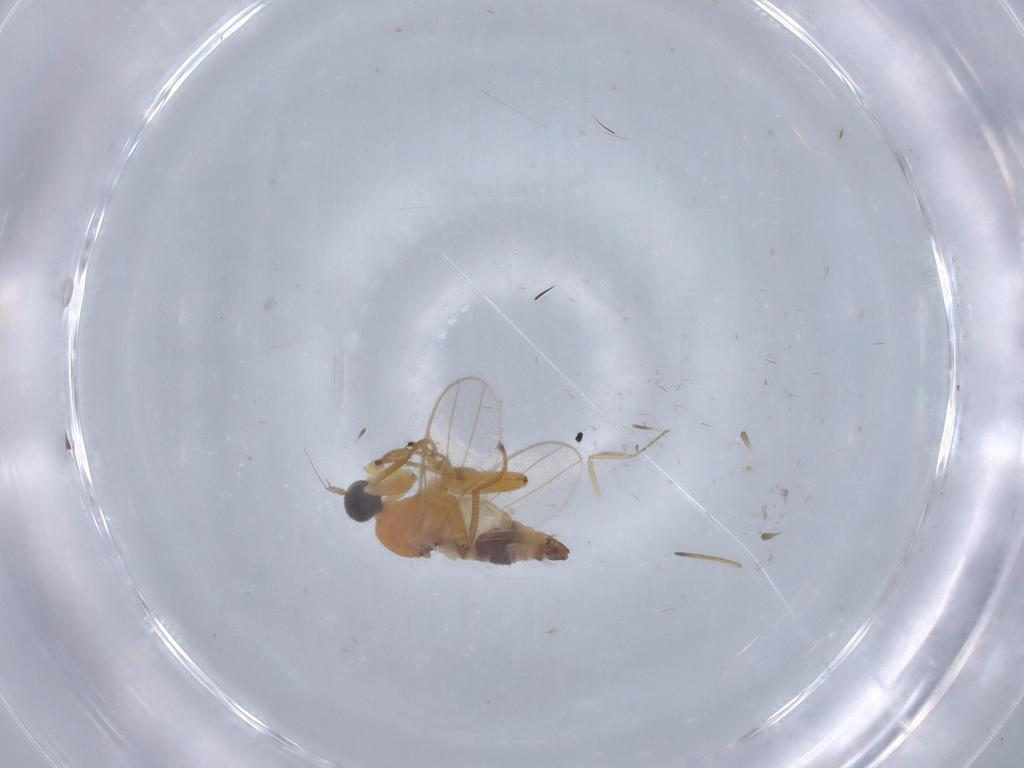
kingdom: Animalia
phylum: Arthropoda
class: Insecta
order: Diptera
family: Hybotidae
